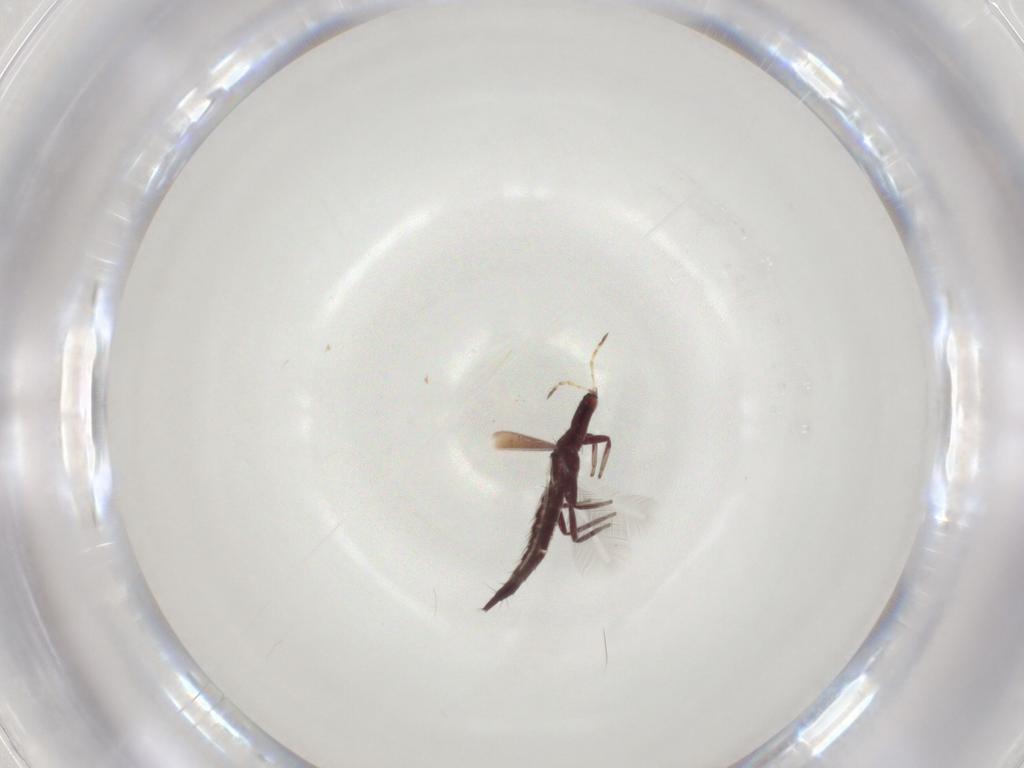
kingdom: Animalia
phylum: Arthropoda
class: Insecta
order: Thysanoptera
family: Phlaeothripidae
